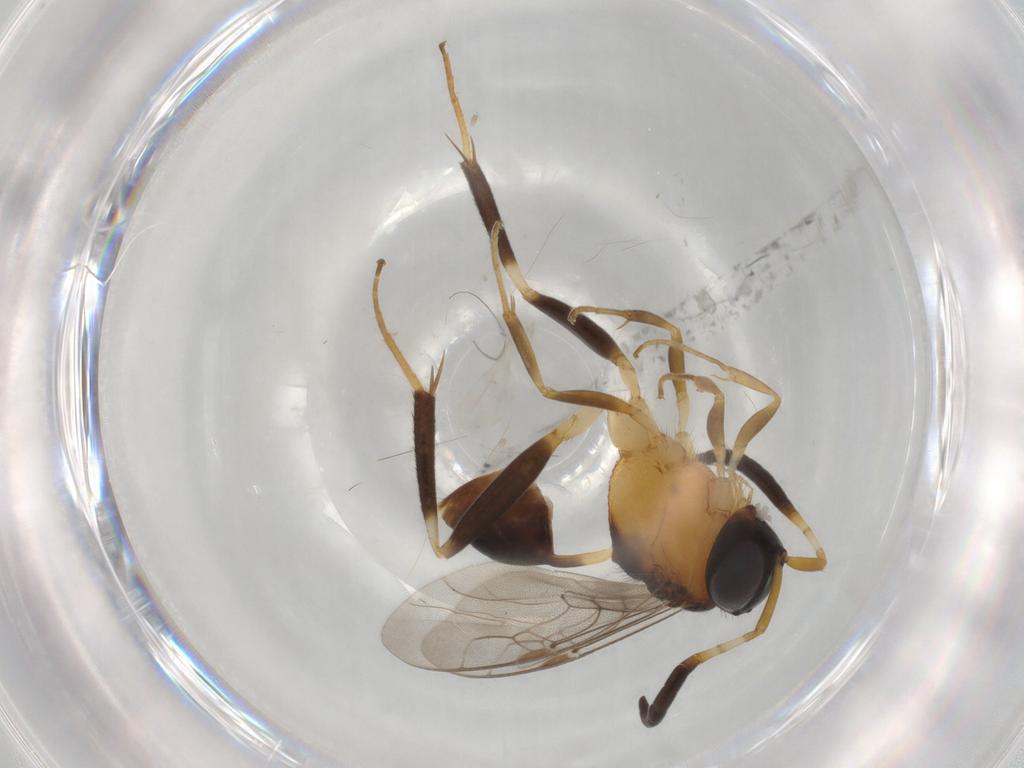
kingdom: Animalia
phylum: Arthropoda
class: Insecta
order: Hymenoptera
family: Evaniidae
